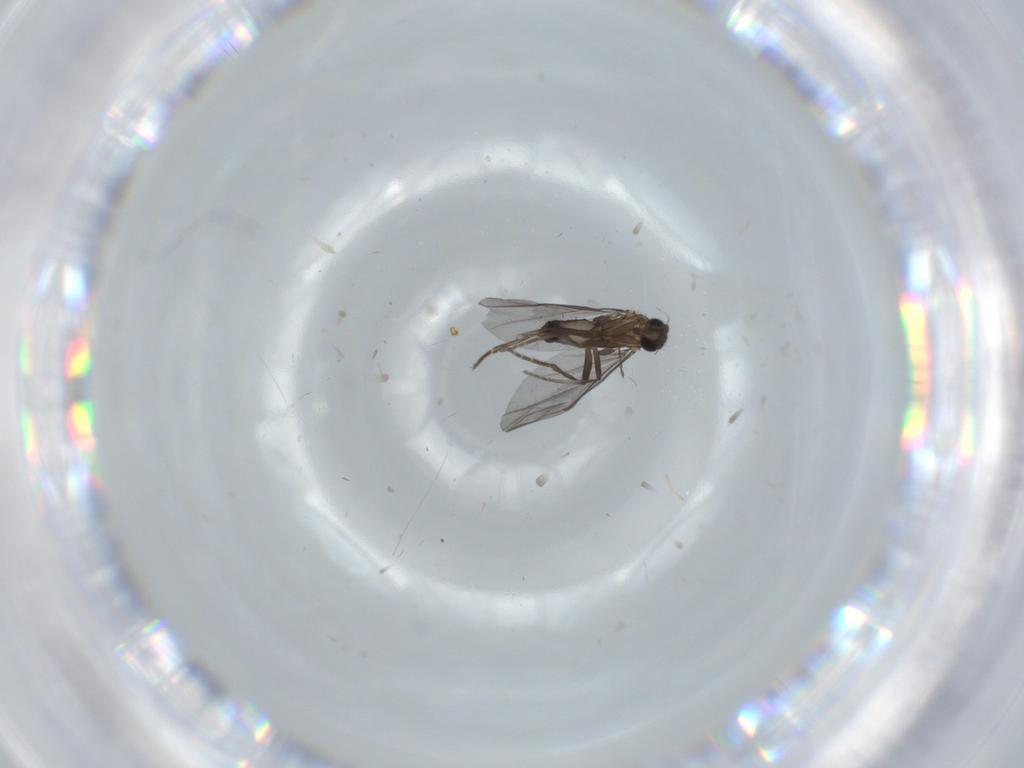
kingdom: Animalia
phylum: Arthropoda
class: Insecta
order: Diptera
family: Phoridae
